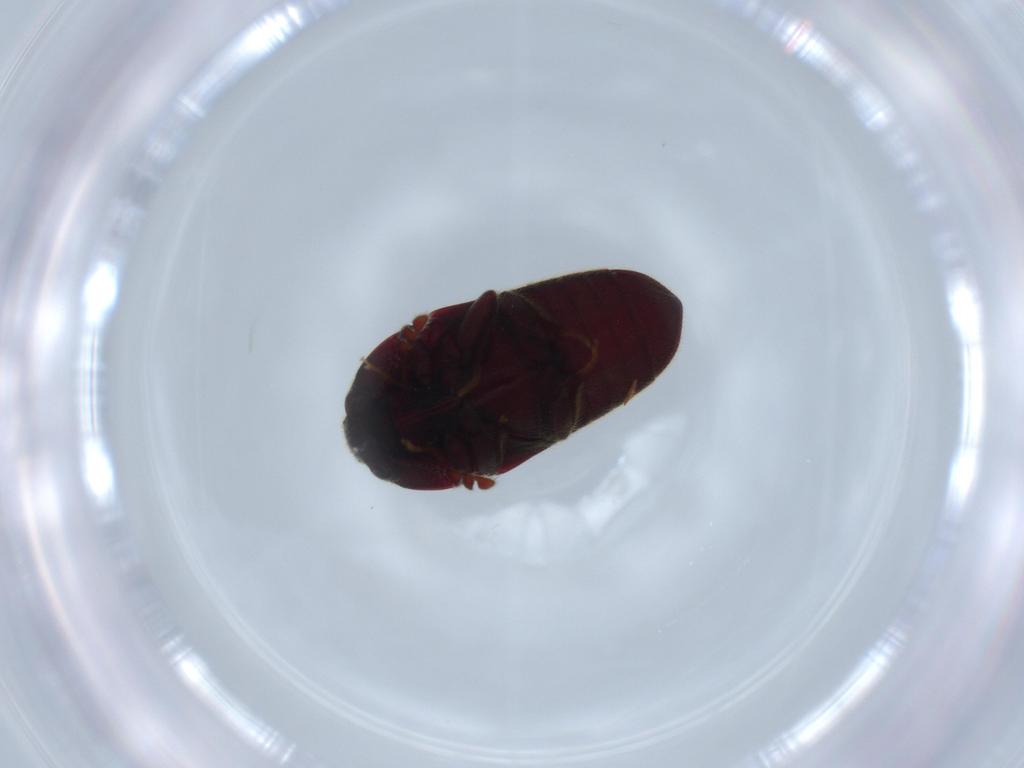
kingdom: Animalia
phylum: Arthropoda
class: Insecta
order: Coleoptera
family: Throscidae
